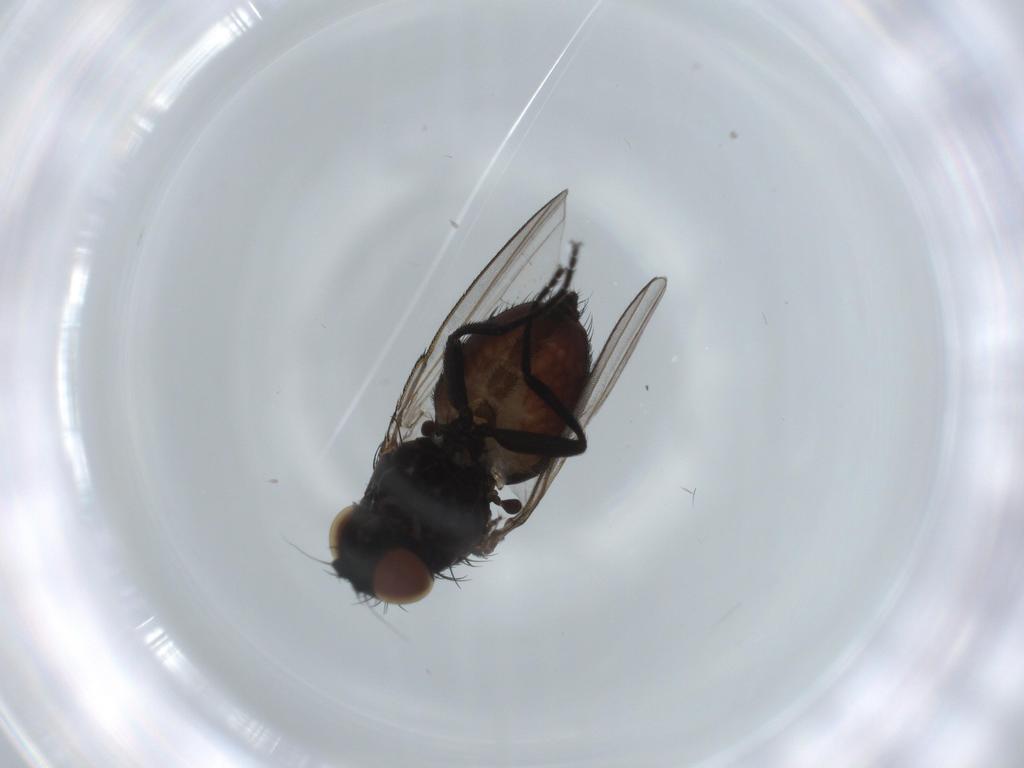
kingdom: Animalia
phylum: Arthropoda
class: Insecta
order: Diptera
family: Milichiidae
